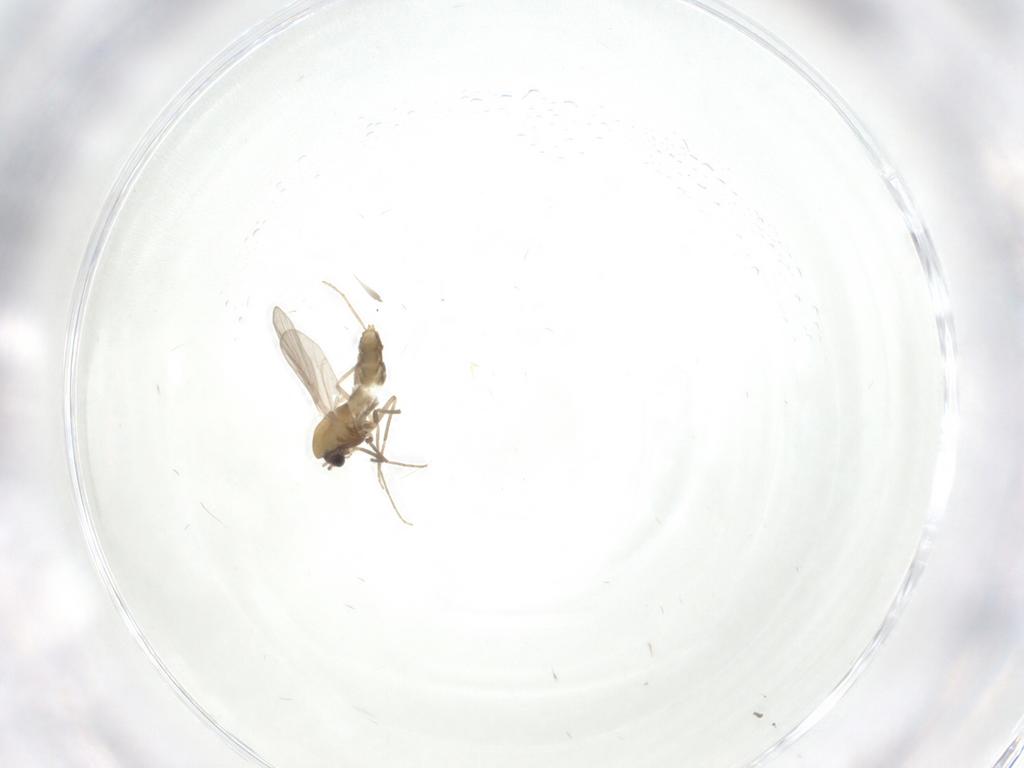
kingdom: Animalia
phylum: Arthropoda
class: Insecta
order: Diptera
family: Chironomidae
